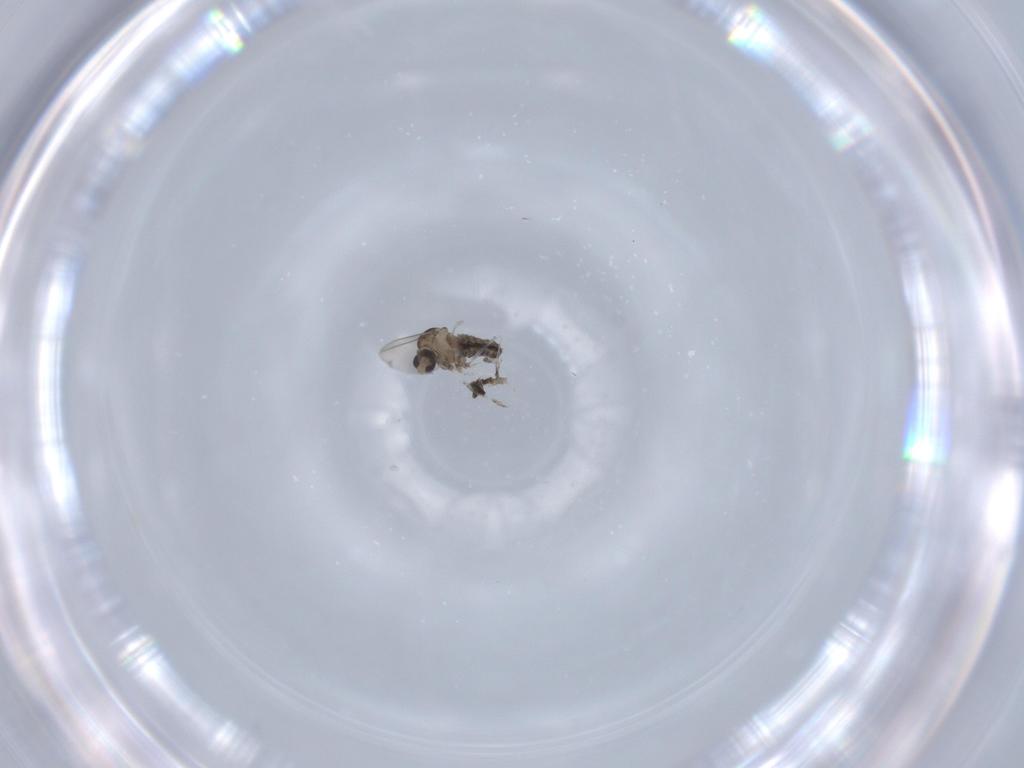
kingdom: Animalia
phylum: Arthropoda
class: Insecta
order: Diptera
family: Cecidomyiidae
